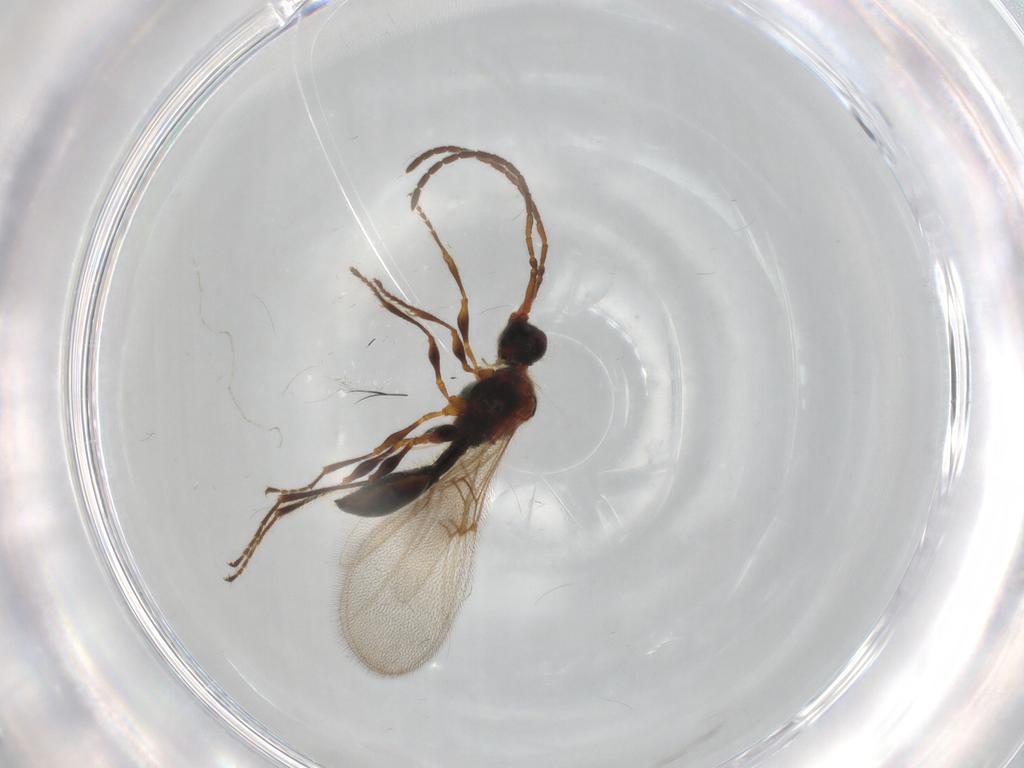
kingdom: Animalia
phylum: Arthropoda
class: Insecta
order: Hymenoptera
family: Diapriidae
